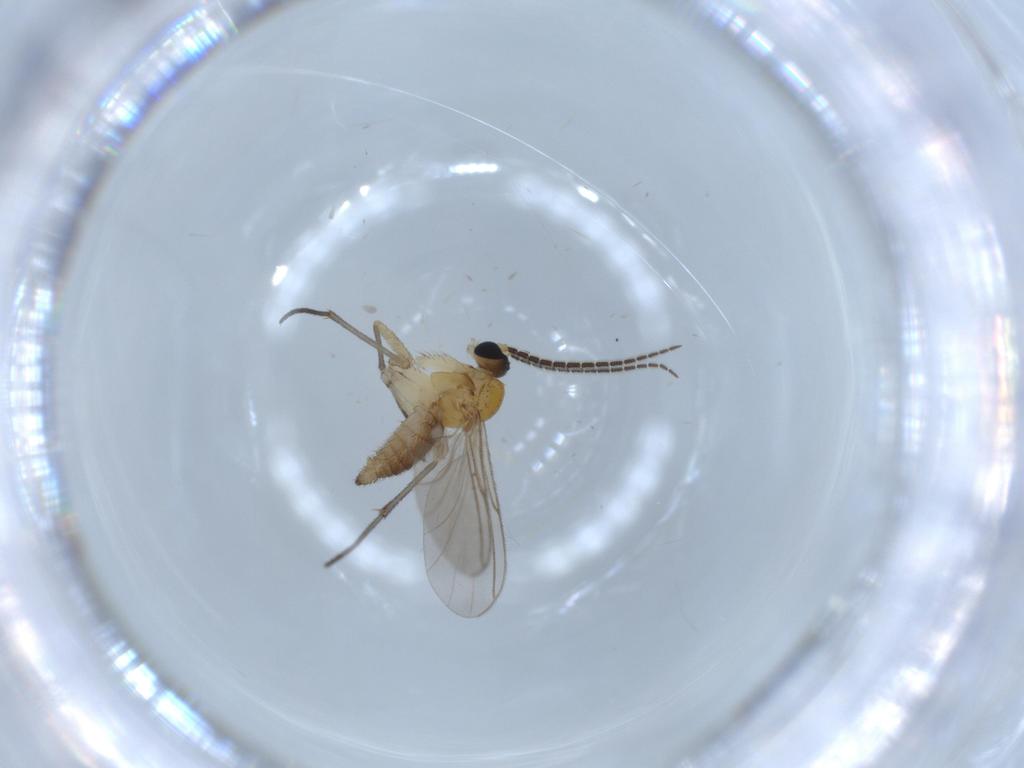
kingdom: Animalia
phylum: Arthropoda
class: Insecta
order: Diptera
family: Sciaridae
